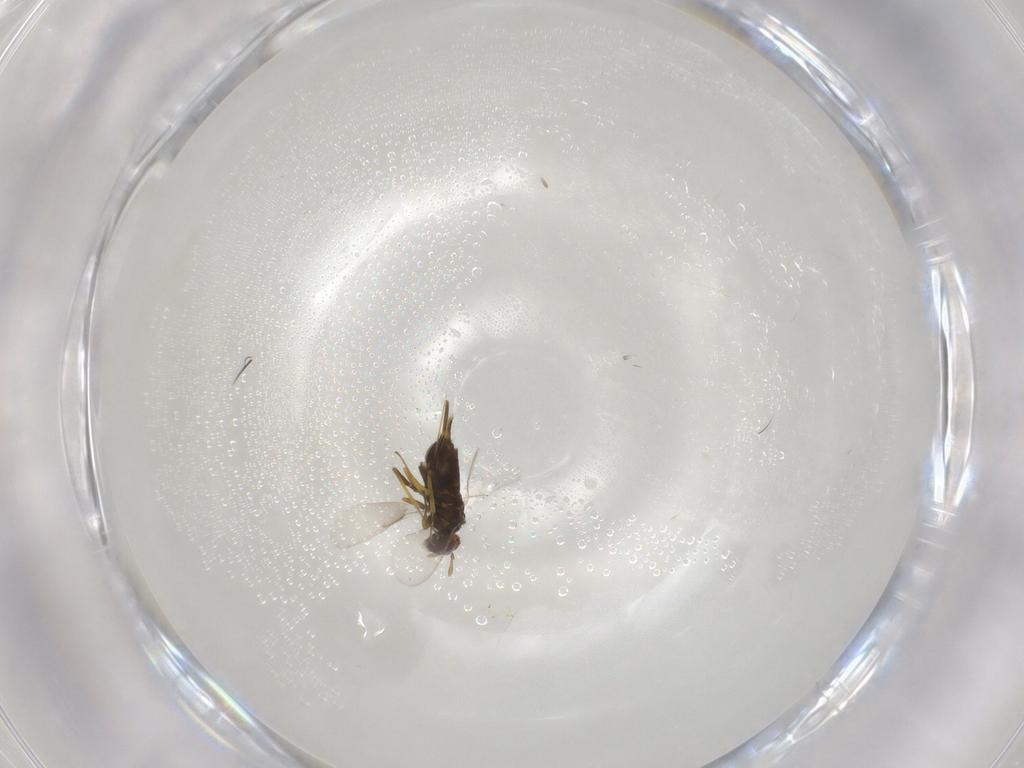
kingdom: Animalia
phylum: Arthropoda
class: Insecta
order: Hymenoptera
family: Aphelinidae
